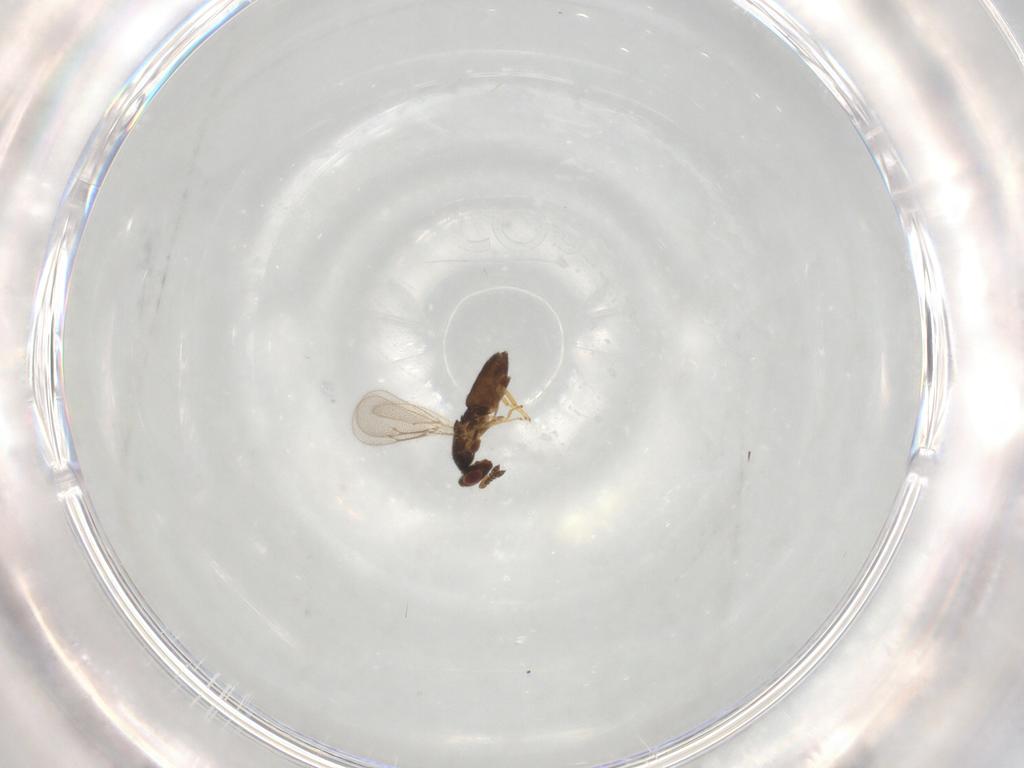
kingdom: Animalia
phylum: Arthropoda
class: Insecta
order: Hymenoptera
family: Eulophidae
